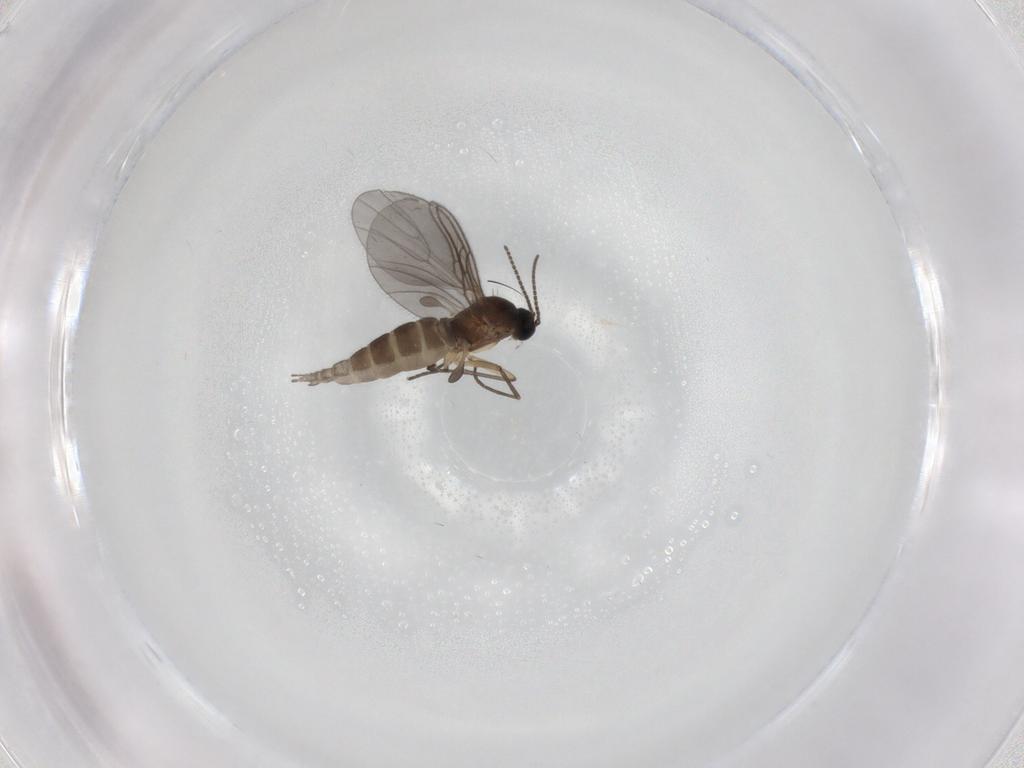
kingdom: Animalia
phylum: Arthropoda
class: Insecta
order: Diptera
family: Sciaridae
